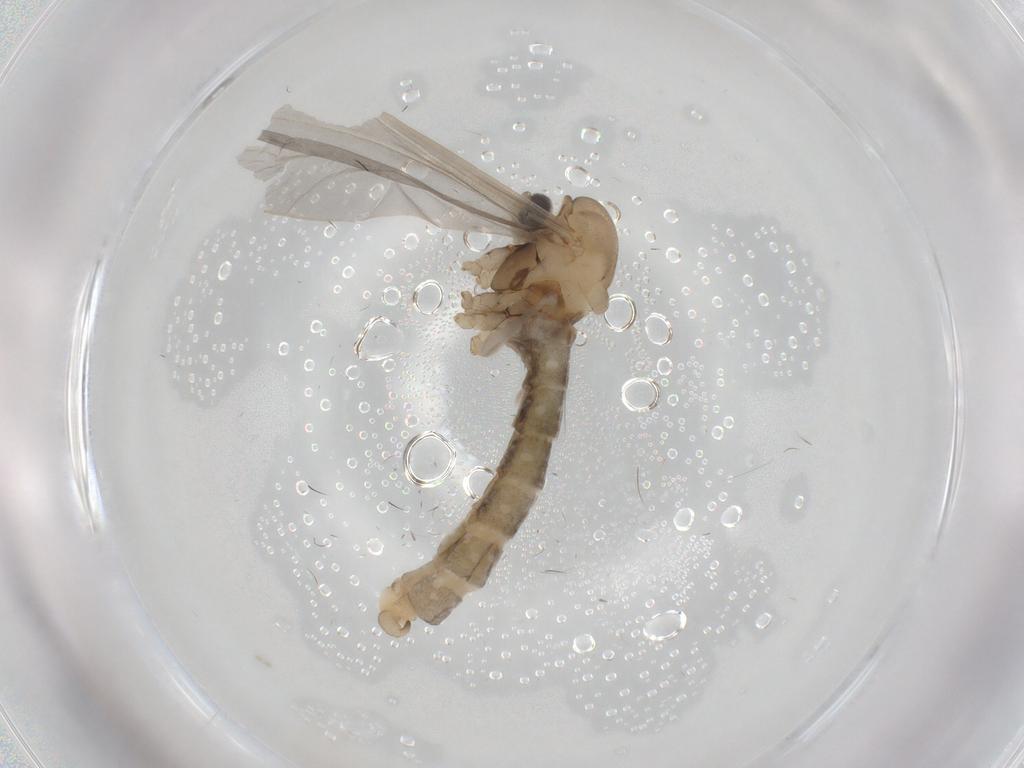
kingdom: Animalia
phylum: Arthropoda
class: Insecta
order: Diptera
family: Cecidomyiidae
